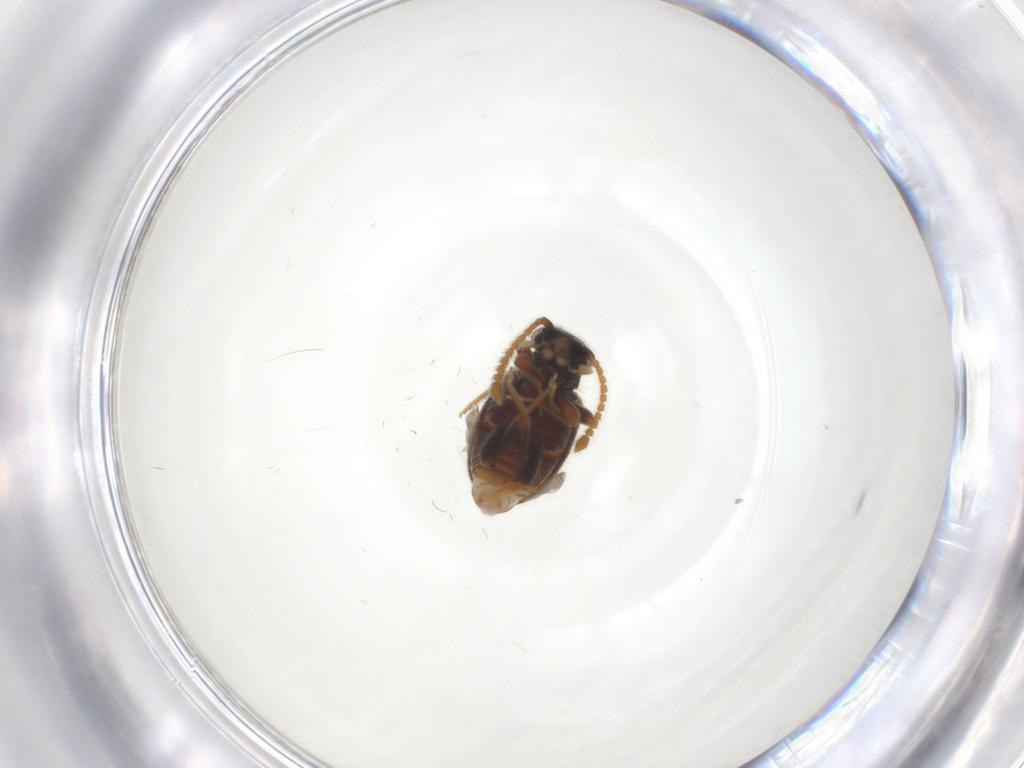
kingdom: Animalia
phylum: Arthropoda
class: Insecta
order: Coleoptera
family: Aderidae
